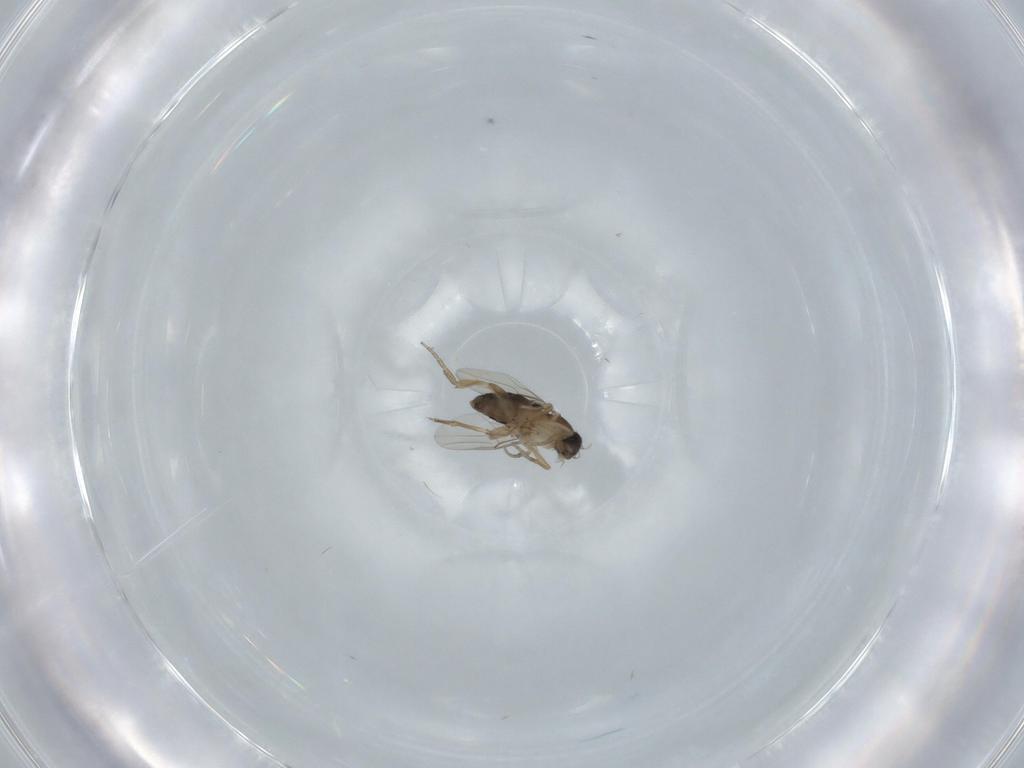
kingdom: Animalia
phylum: Arthropoda
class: Insecta
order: Diptera
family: Phoridae
